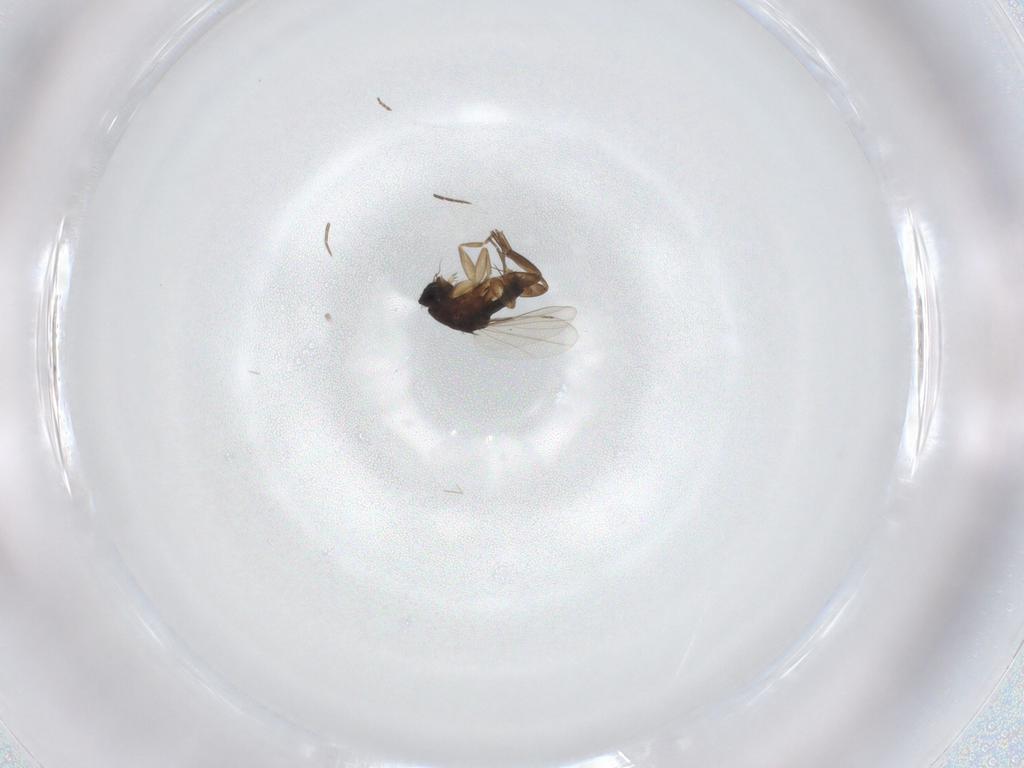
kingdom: Animalia
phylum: Arthropoda
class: Insecta
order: Diptera
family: Phoridae
